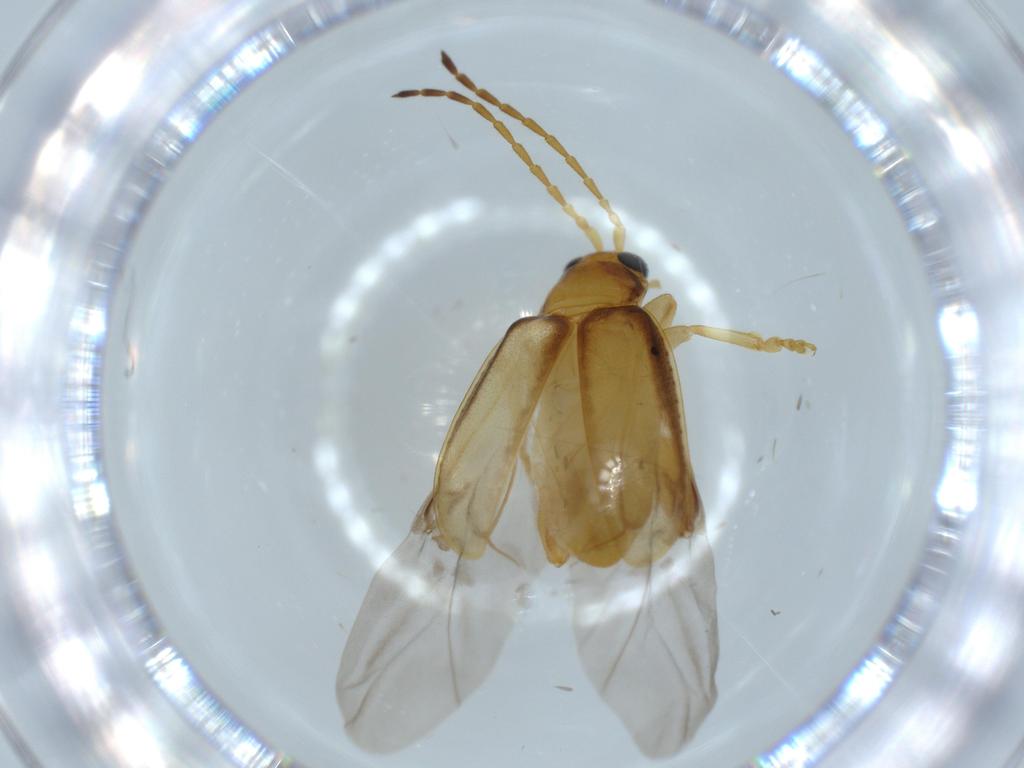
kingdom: Animalia
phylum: Arthropoda
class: Insecta
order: Coleoptera
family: Chrysomelidae
